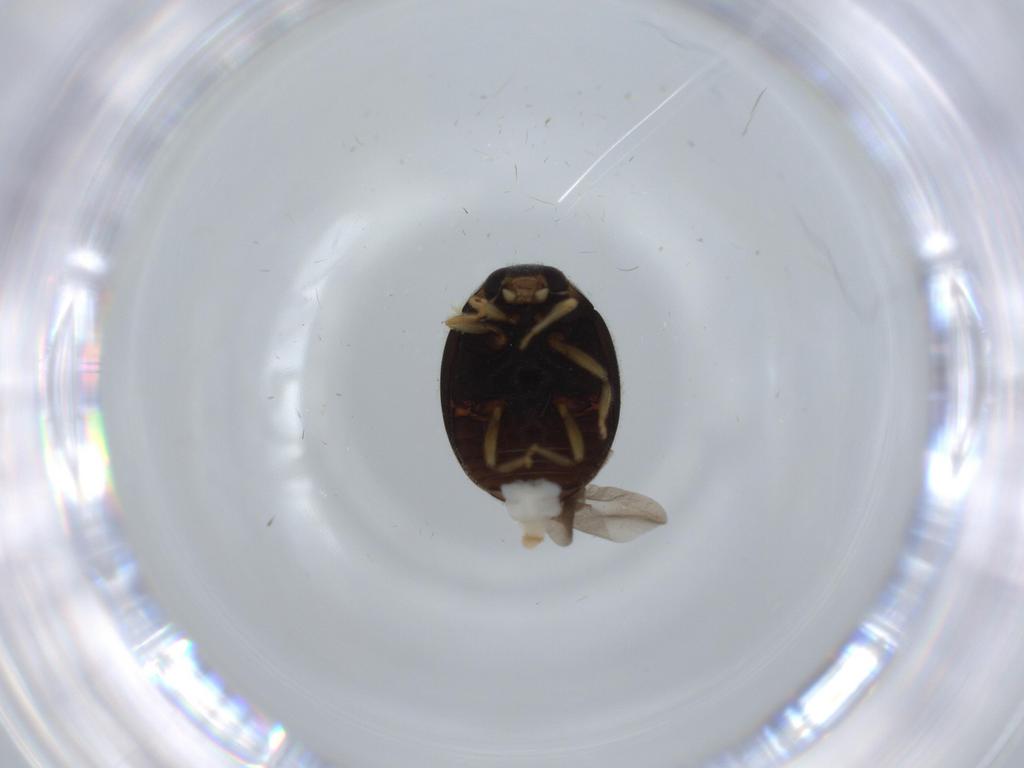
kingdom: Animalia
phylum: Arthropoda
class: Insecta
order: Coleoptera
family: Coccinellidae
